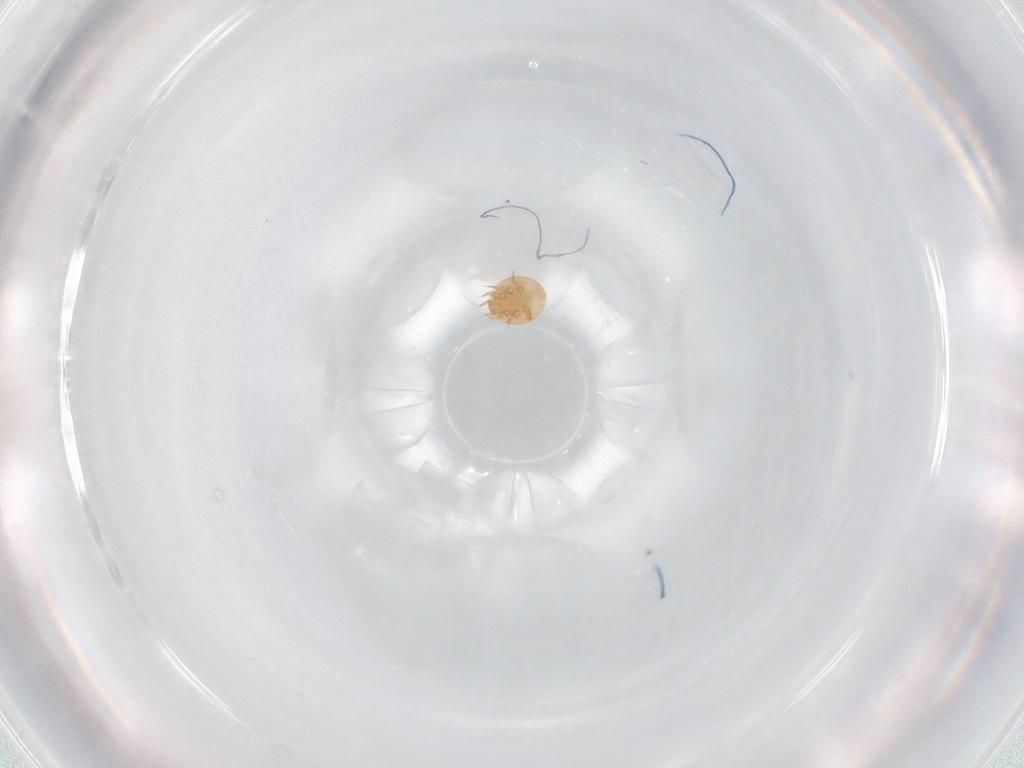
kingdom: Animalia
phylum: Arthropoda
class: Arachnida
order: Mesostigmata
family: Trematuridae
